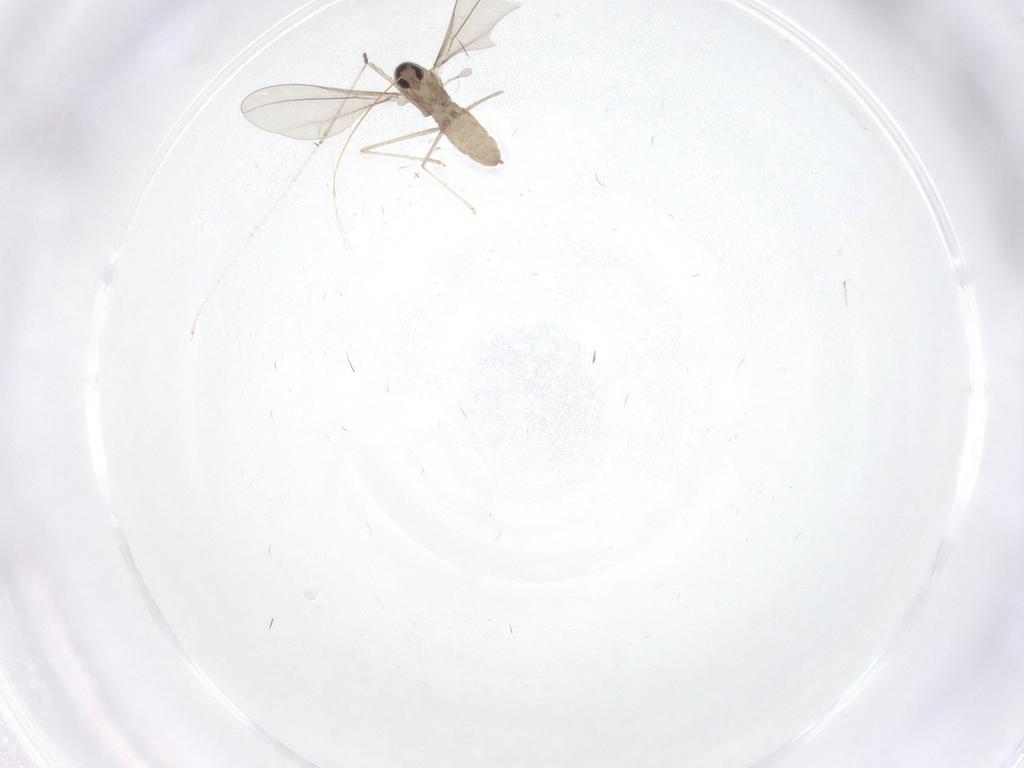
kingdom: Animalia
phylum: Arthropoda
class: Insecta
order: Diptera
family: Cecidomyiidae
